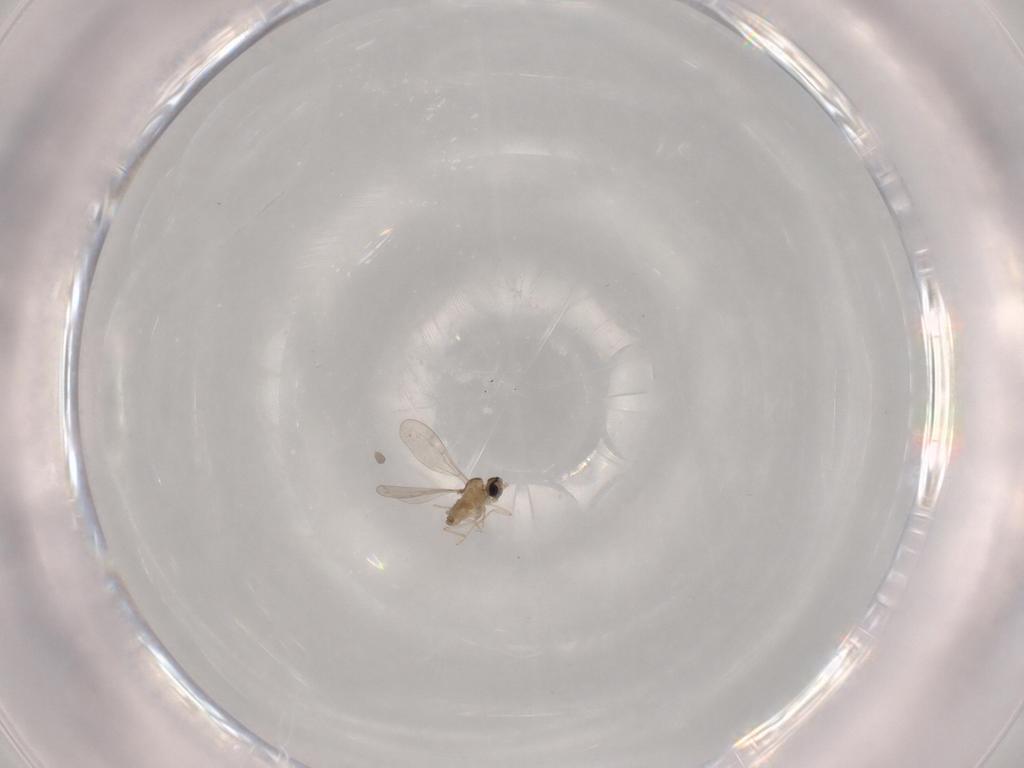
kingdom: Animalia
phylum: Arthropoda
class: Insecta
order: Diptera
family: Cecidomyiidae
